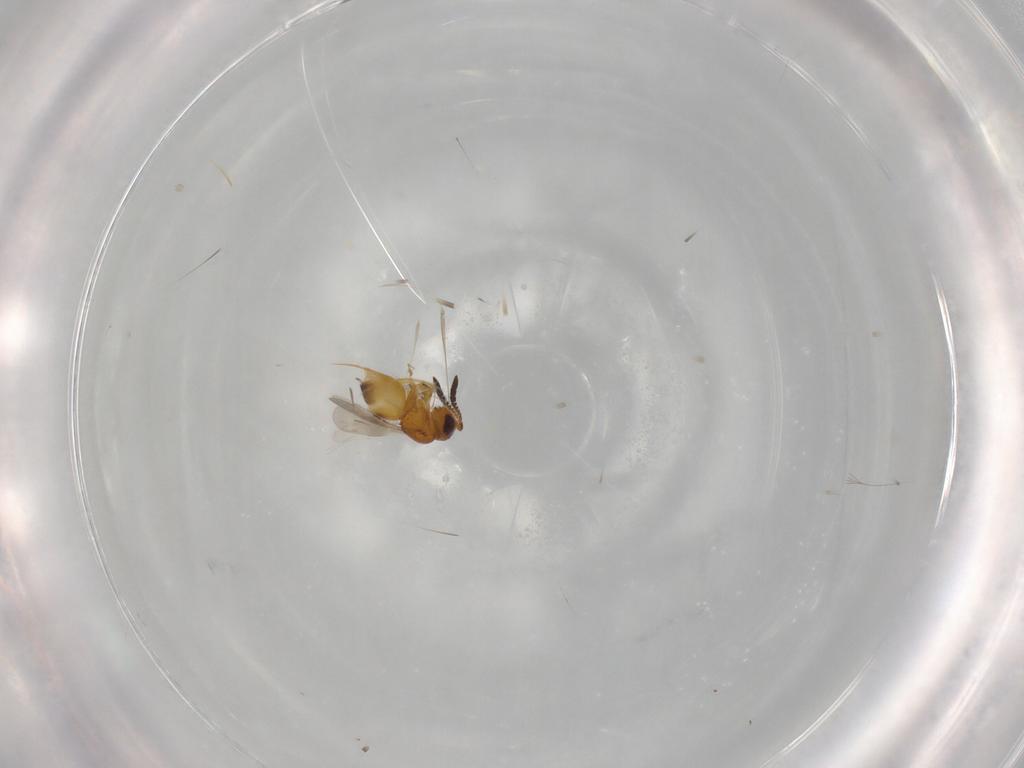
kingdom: Animalia
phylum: Arthropoda
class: Insecta
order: Hymenoptera
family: Ceraphronidae
